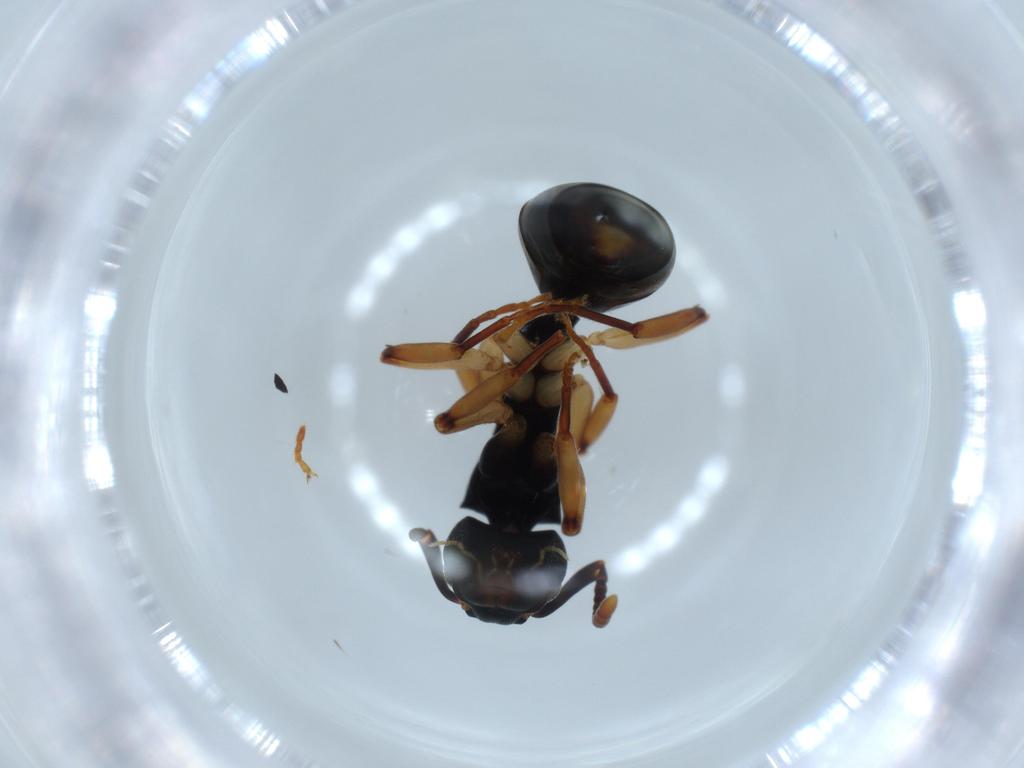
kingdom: Animalia
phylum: Arthropoda
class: Insecta
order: Hymenoptera
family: Formicidae
